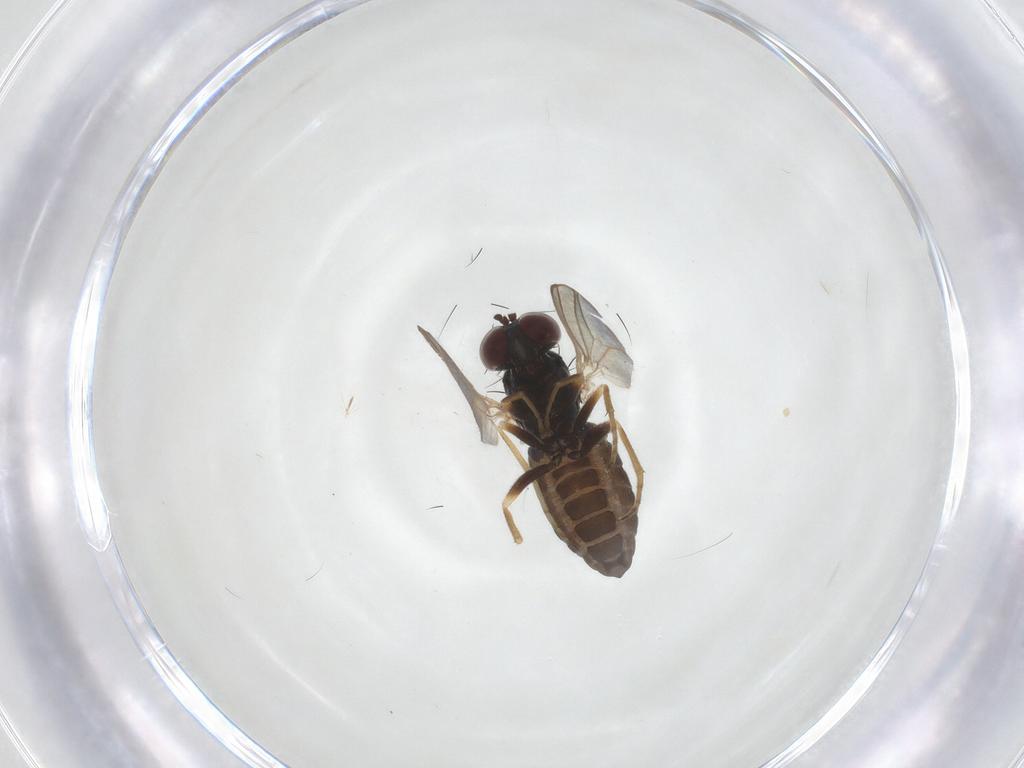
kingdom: Animalia
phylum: Arthropoda
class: Insecta
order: Diptera
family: Dolichopodidae
